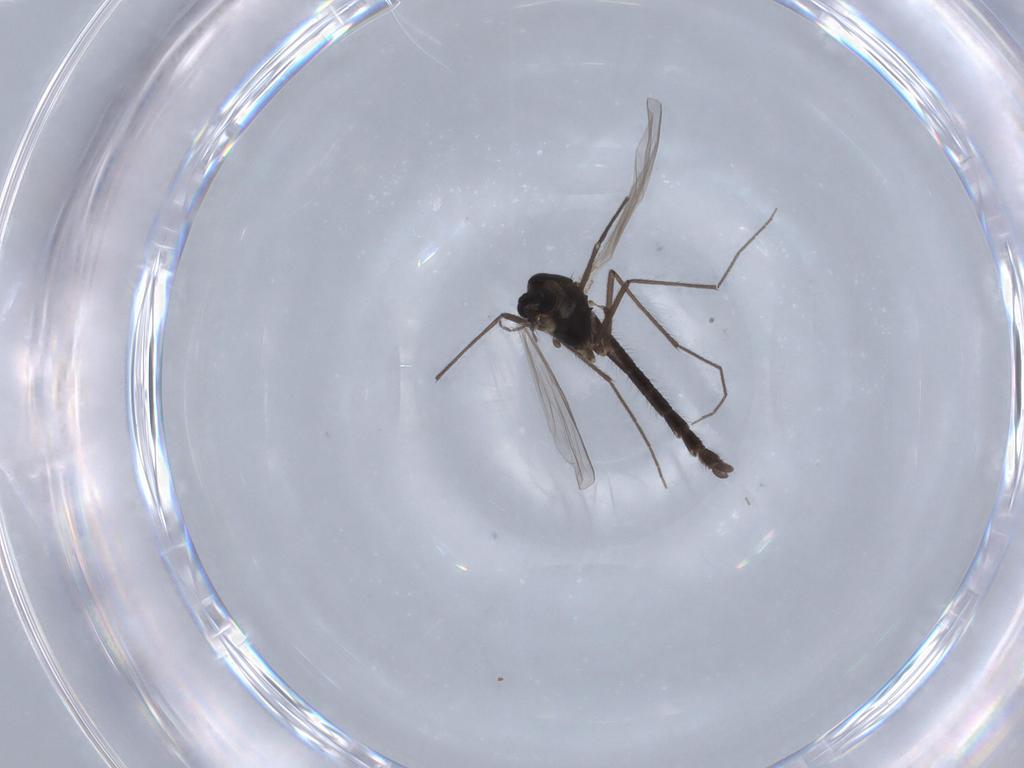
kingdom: Animalia
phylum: Arthropoda
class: Insecta
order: Diptera
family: Chironomidae
